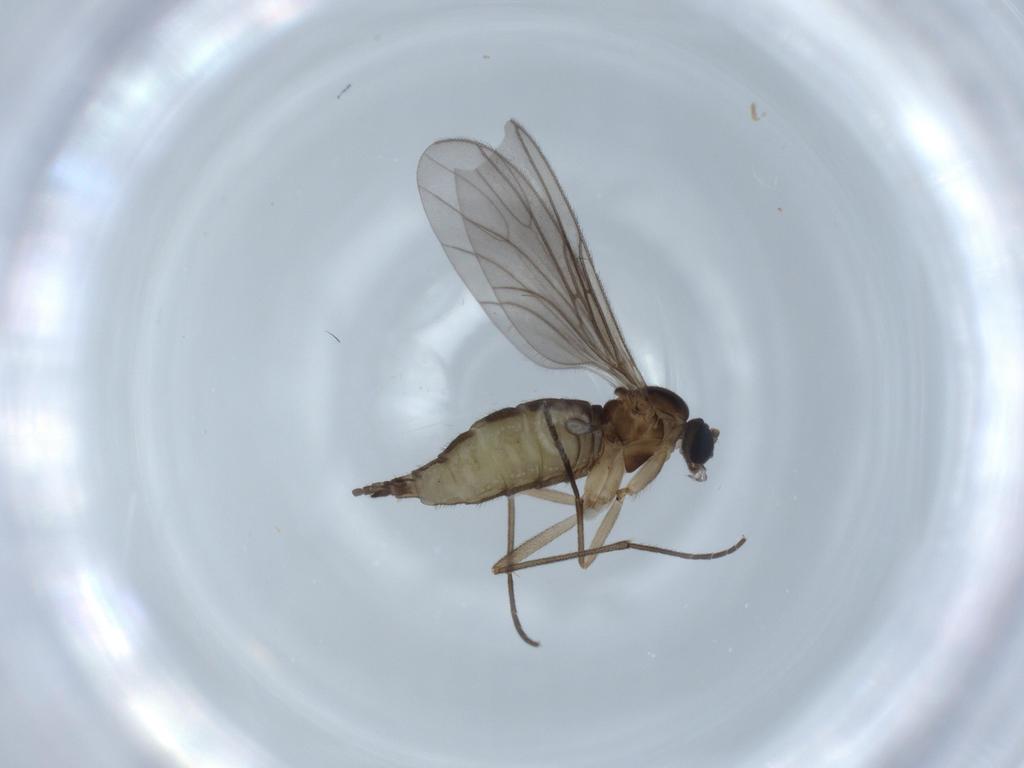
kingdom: Animalia
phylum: Arthropoda
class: Insecta
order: Diptera
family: Sciaridae
